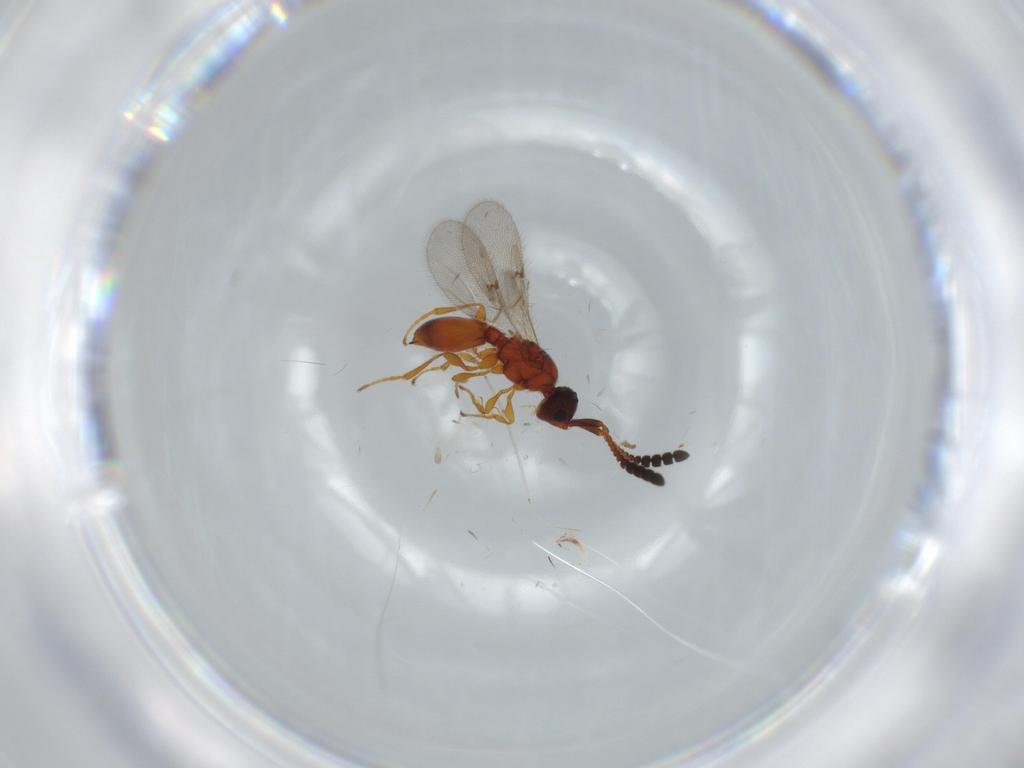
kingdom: Animalia
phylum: Arthropoda
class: Insecta
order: Hymenoptera
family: Diapriidae
